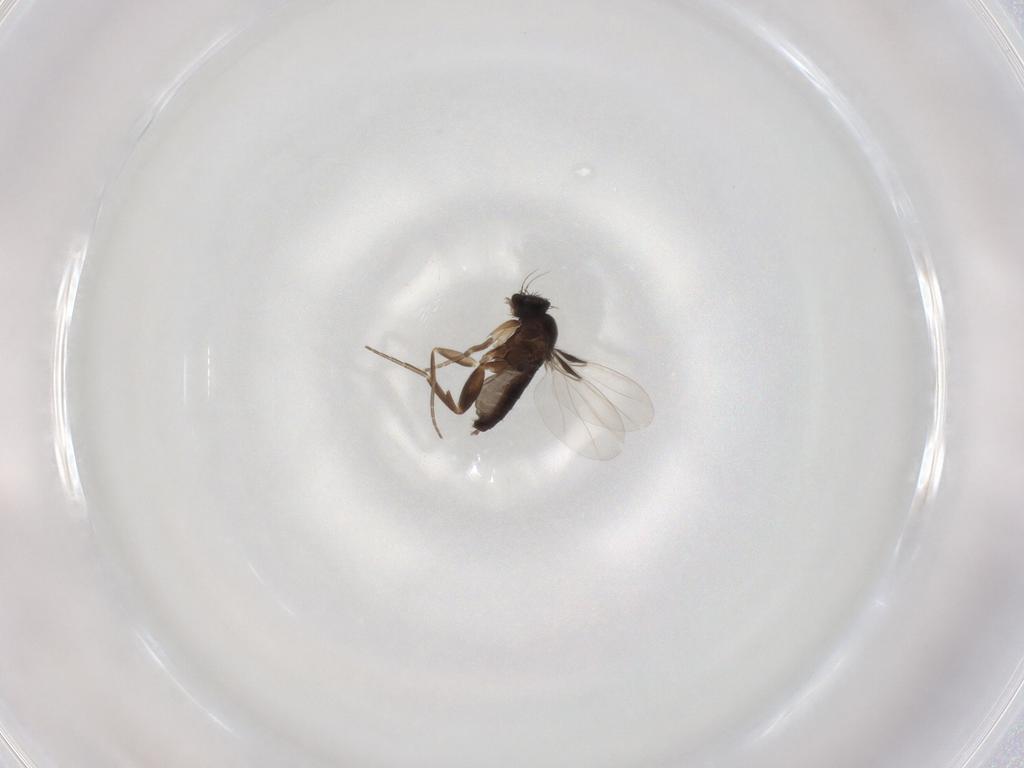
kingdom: Animalia
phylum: Arthropoda
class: Insecta
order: Diptera
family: Phoridae
